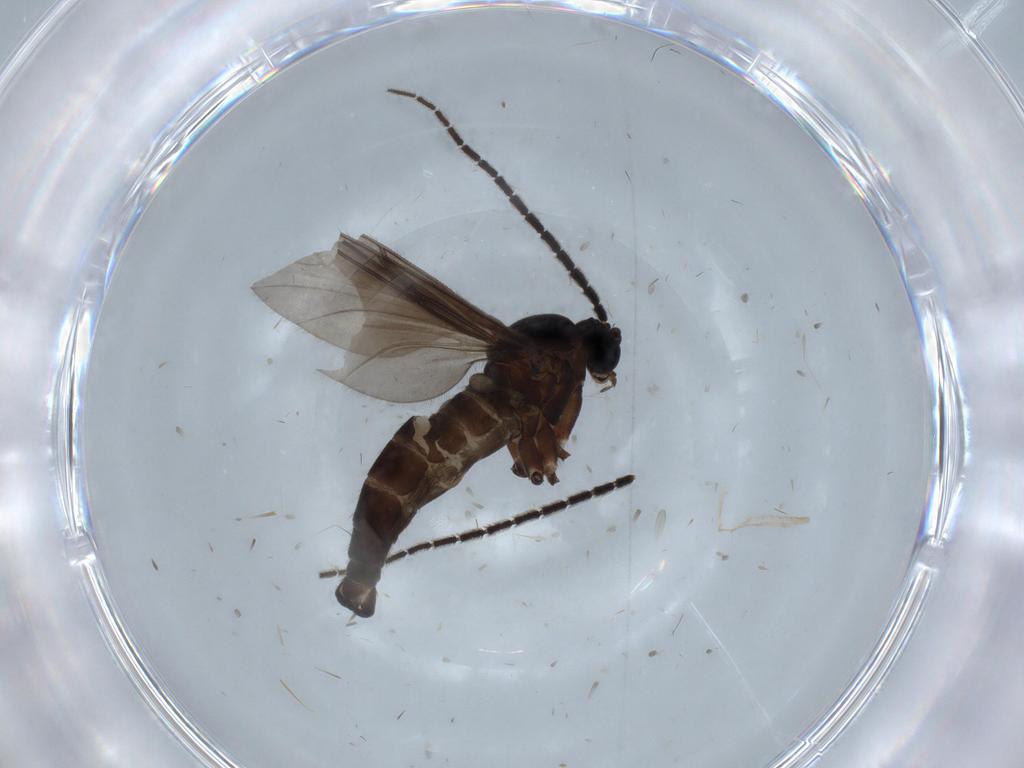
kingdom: Animalia
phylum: Arthropoda
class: Insecta
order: Diptera
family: Sciaridae
